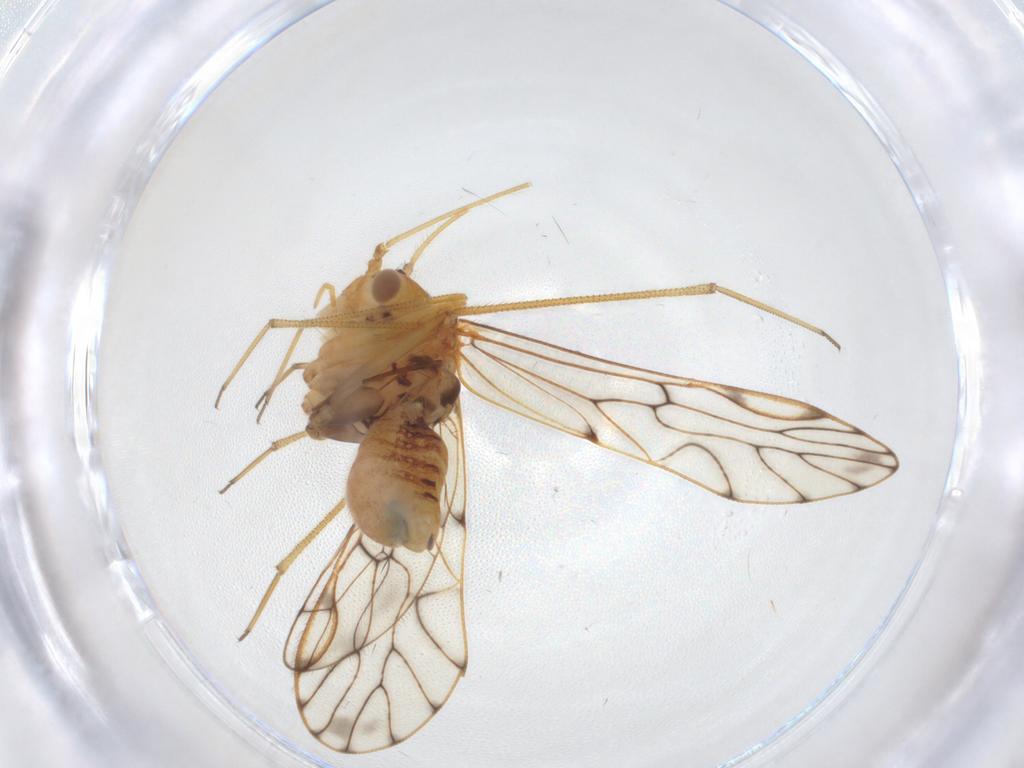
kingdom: Animalia
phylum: Arthropoda
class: Insecta
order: Psocodea
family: Epipsocidae
